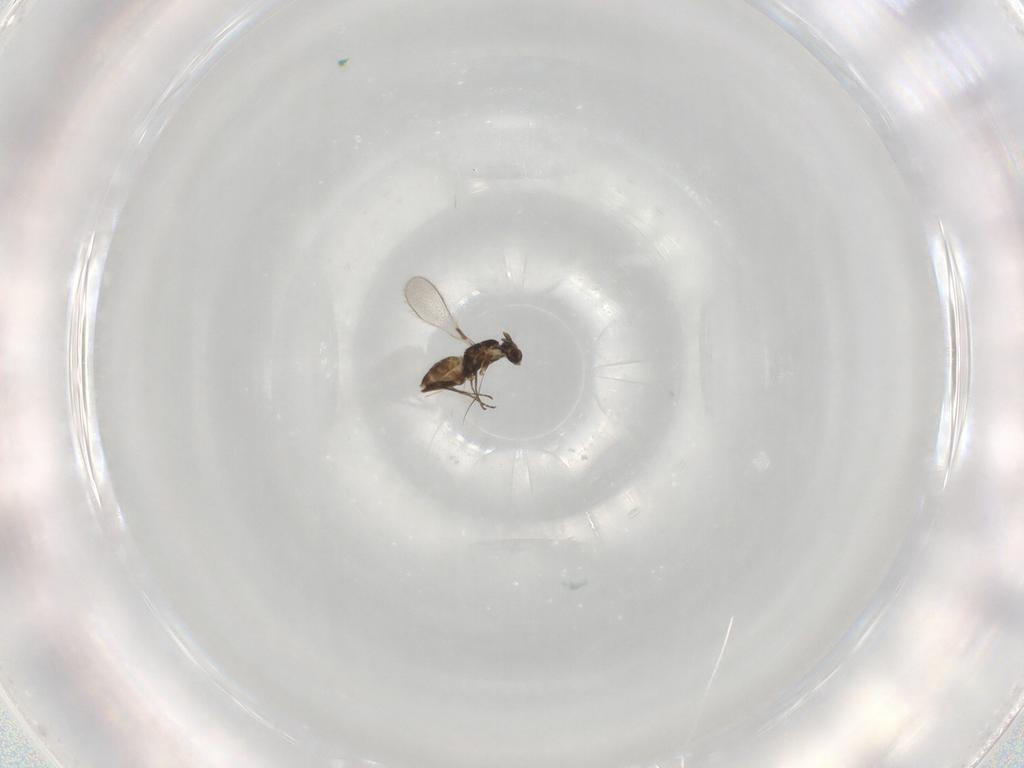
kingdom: Animalia
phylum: Arthropoda
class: Insecta
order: Hymenoptera
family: Mymaridae
